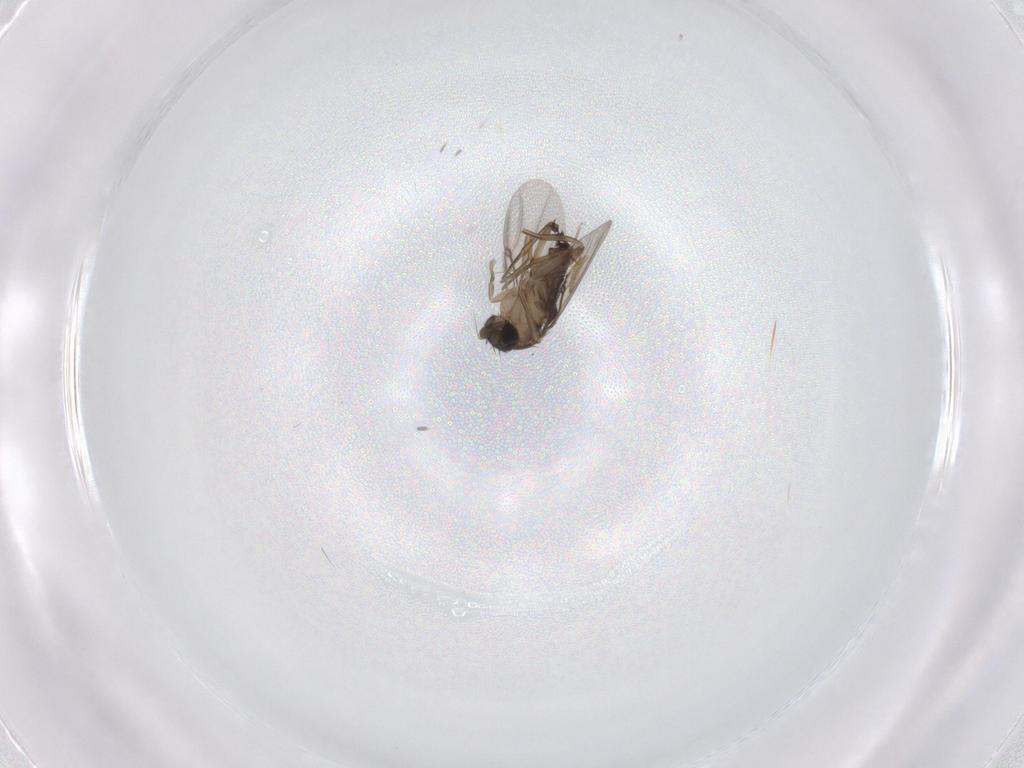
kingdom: Animalia
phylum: Arthropoda
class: Insecta
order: Diptera
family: Phoridae
